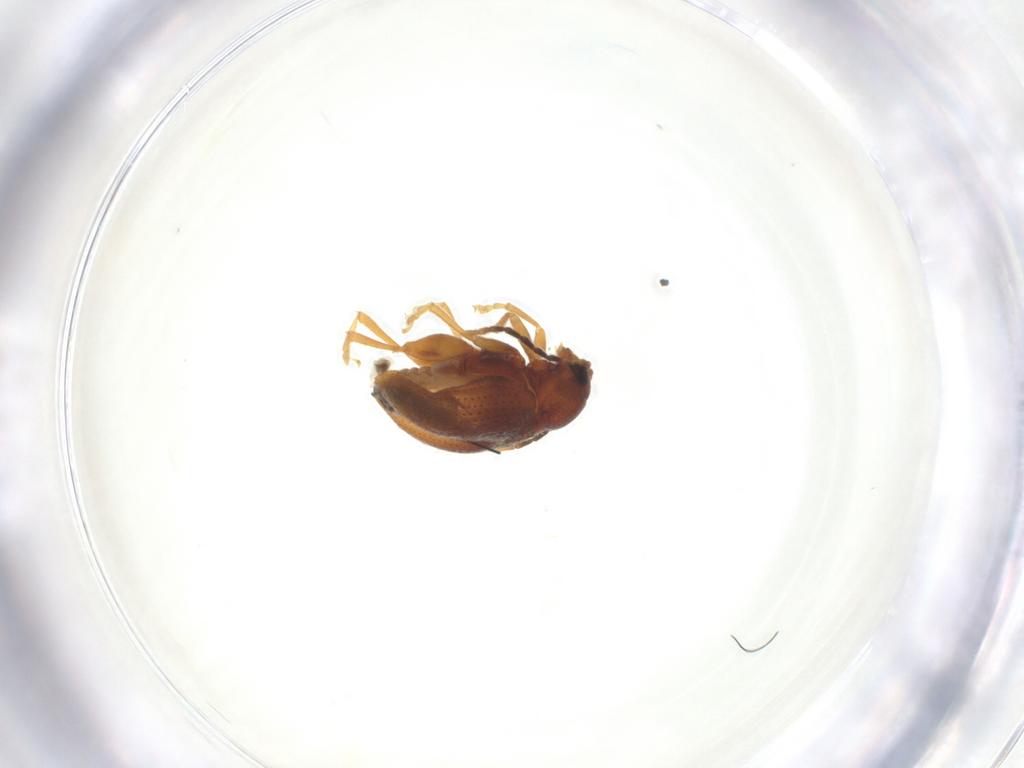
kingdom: Animalia
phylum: Arthropoda
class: Insecta
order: Coleoptera
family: Chrysomelidae
